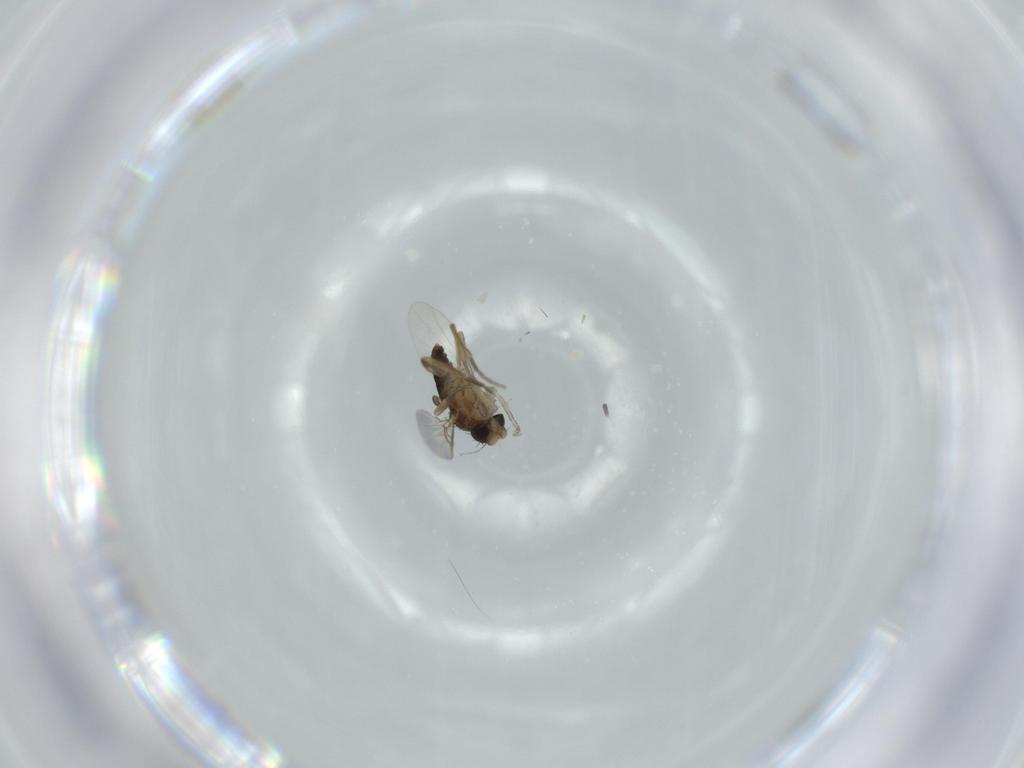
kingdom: Animalia
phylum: Arthropoda
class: Insecta
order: Diptera
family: Phoridae
